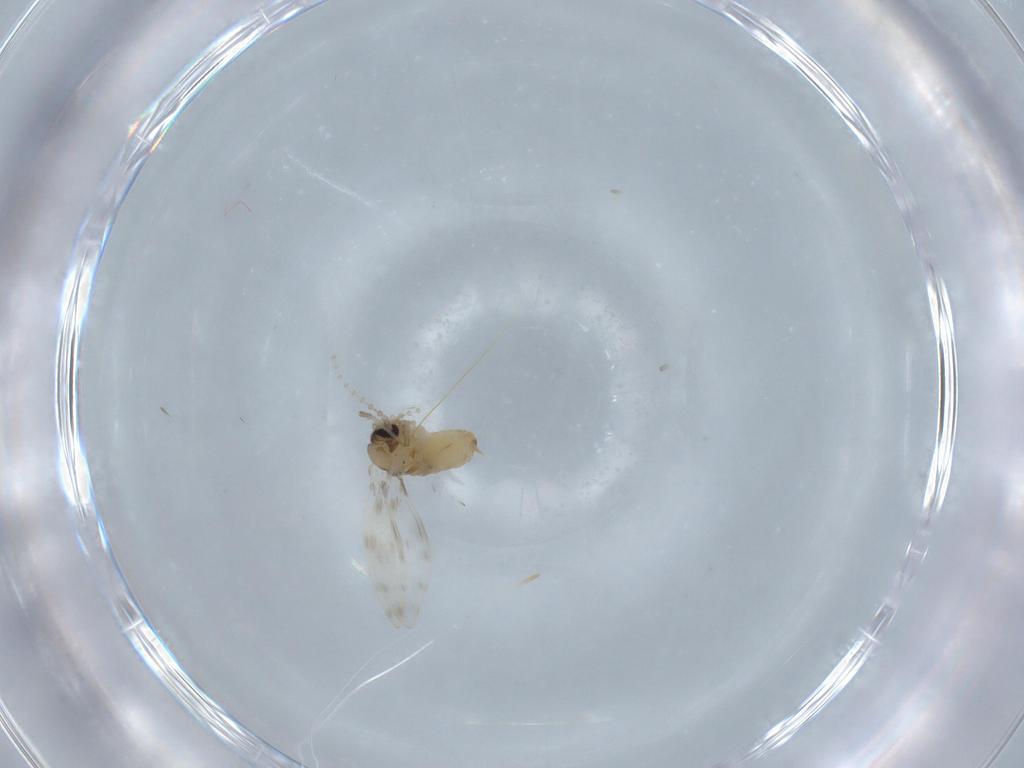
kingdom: Animalia
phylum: Arthropoda
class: Insecta
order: Diptera
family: Psychodidae
